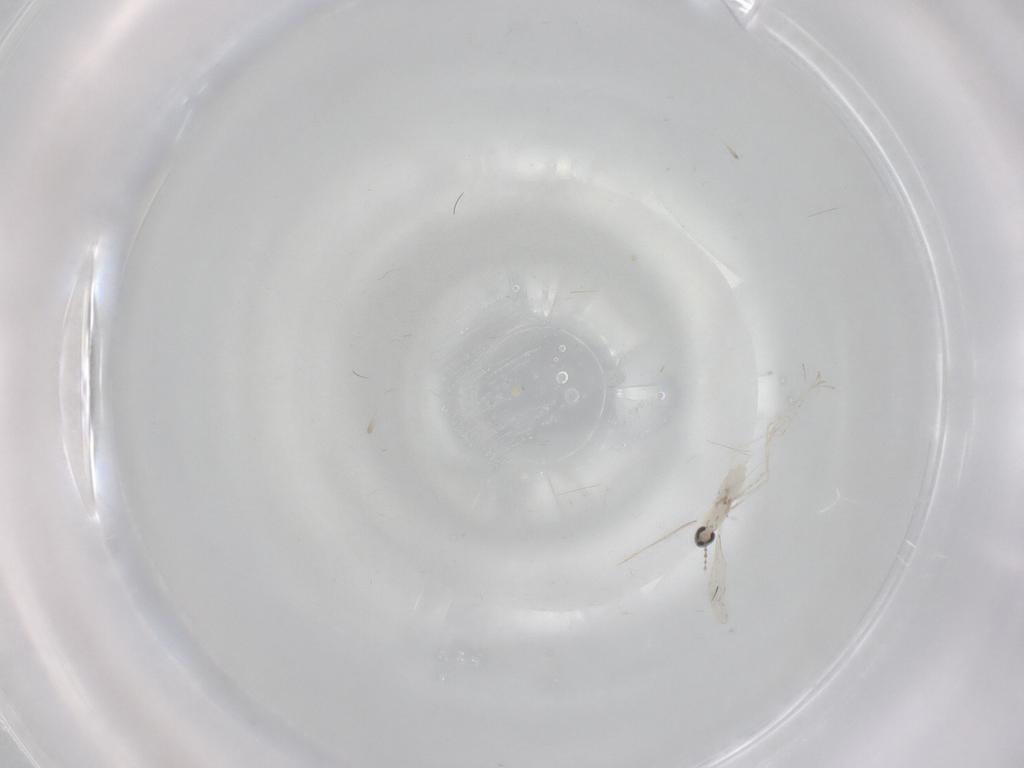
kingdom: Animalia
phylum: Arthropoda
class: Insecta
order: Diptera
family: Cecidomyiidae
